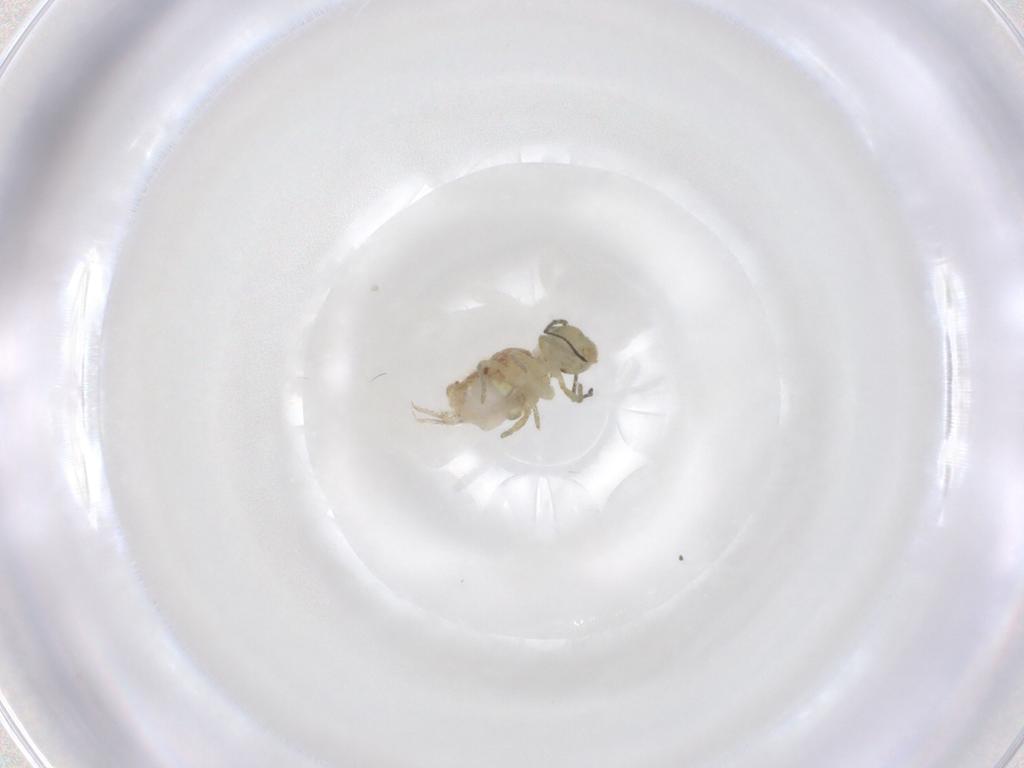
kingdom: Animalia
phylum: Arthropoda
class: Collembola
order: Symphypleona
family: Sminthuridae
